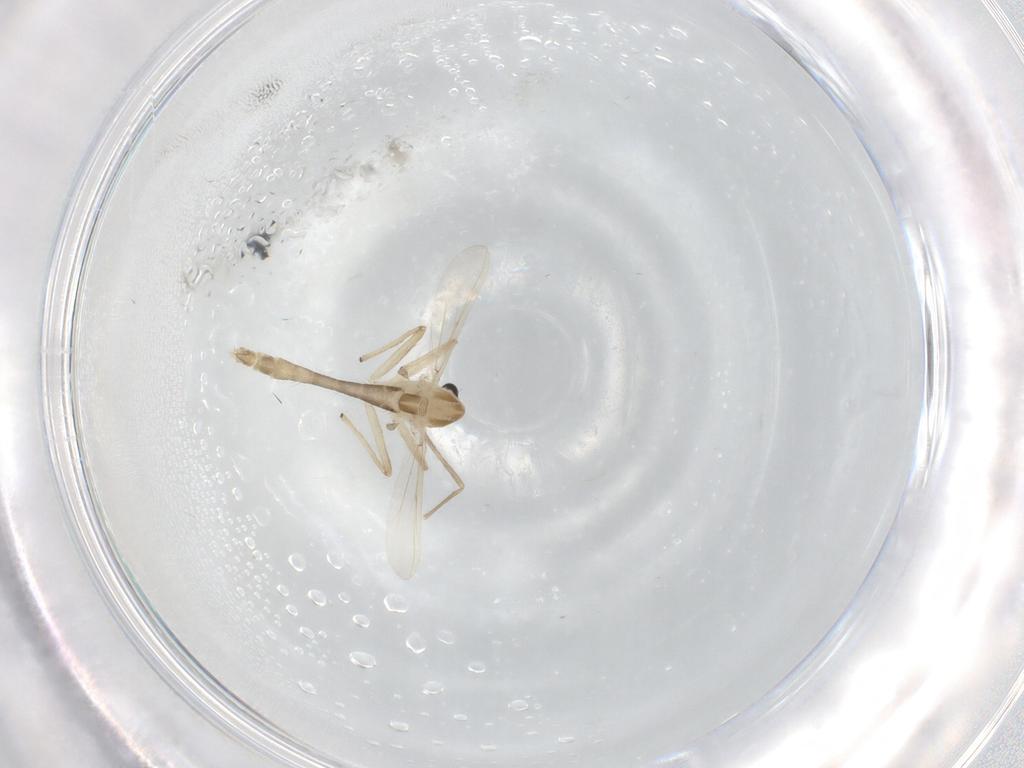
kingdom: Animalia
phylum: Arthropoda
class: Insecta
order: Diptera
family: Chironomidae
